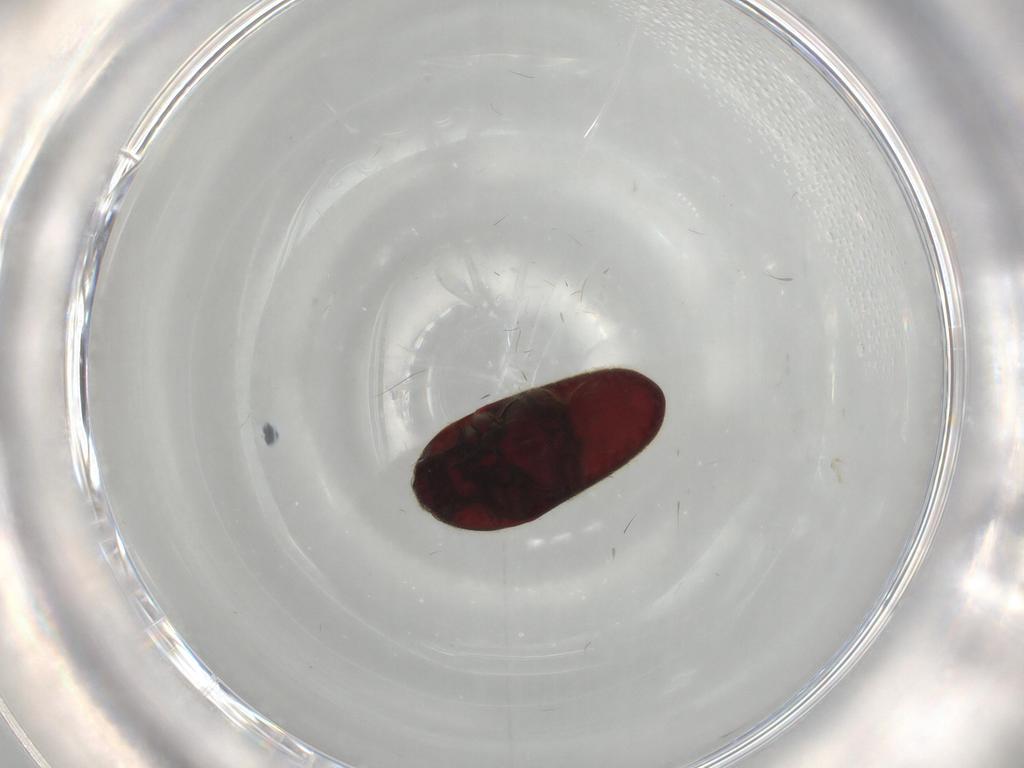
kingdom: Animalia
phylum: Arthropoda
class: Insecta
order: Coleoptera
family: Throscidae
